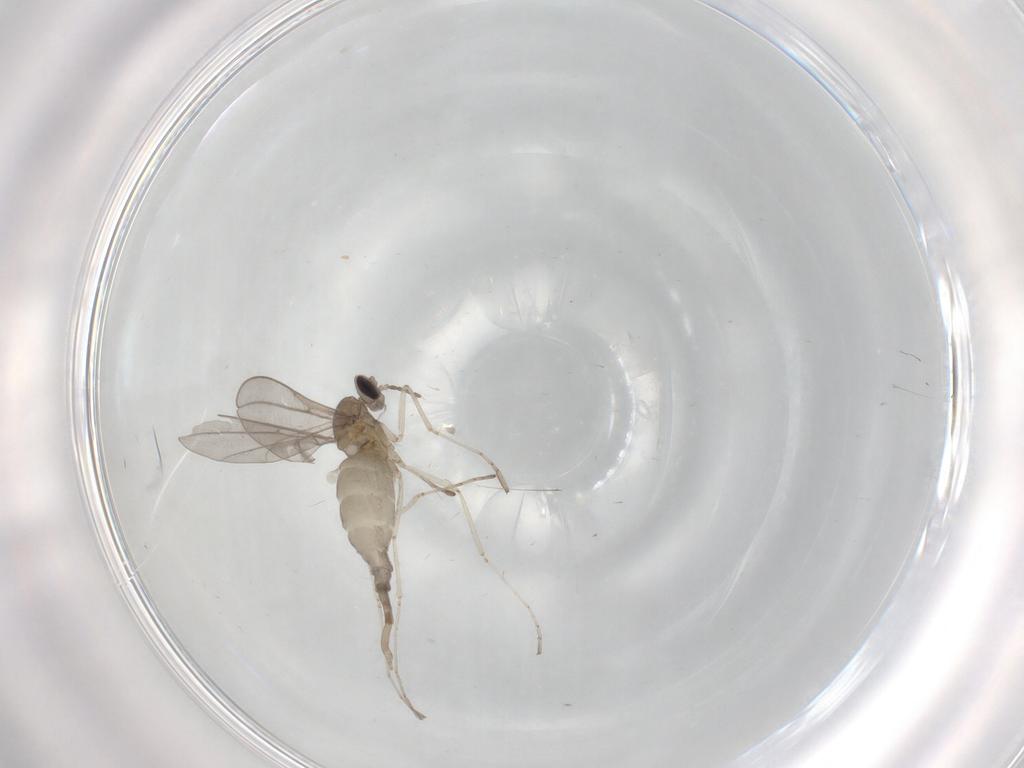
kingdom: Animalia
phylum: Arthropoda
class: Insecta
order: Diptera
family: Cecidomyiidae
